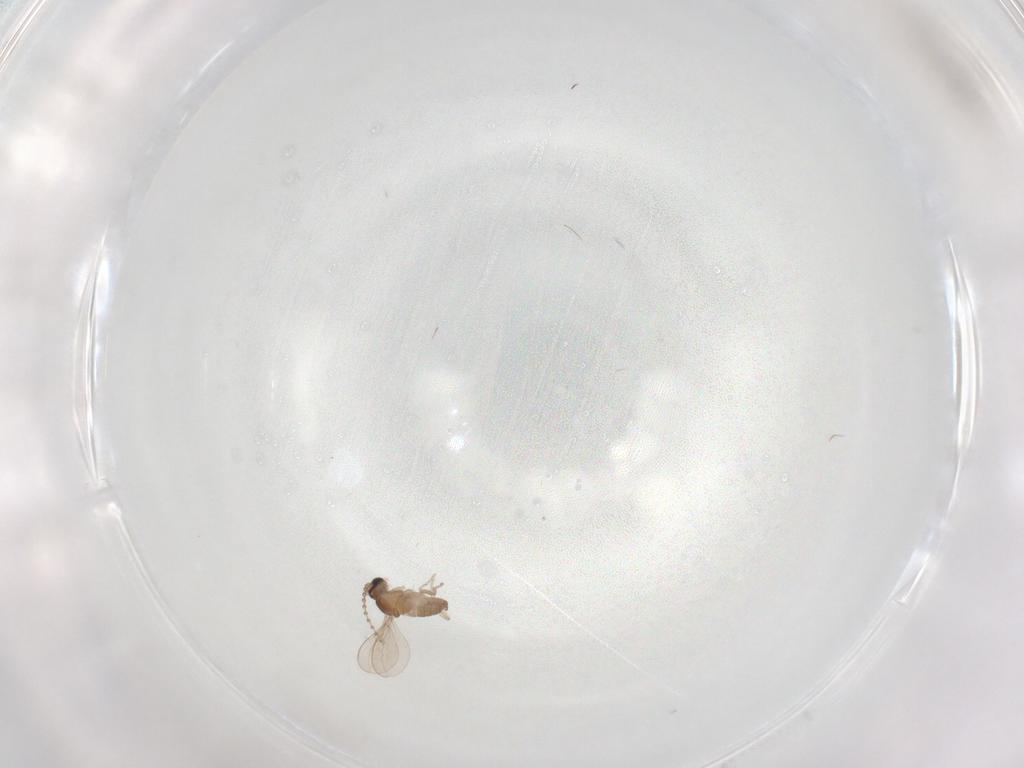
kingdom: Animalia
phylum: Arthropoda
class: Insecta
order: Diptera
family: Cecidomyiidae
